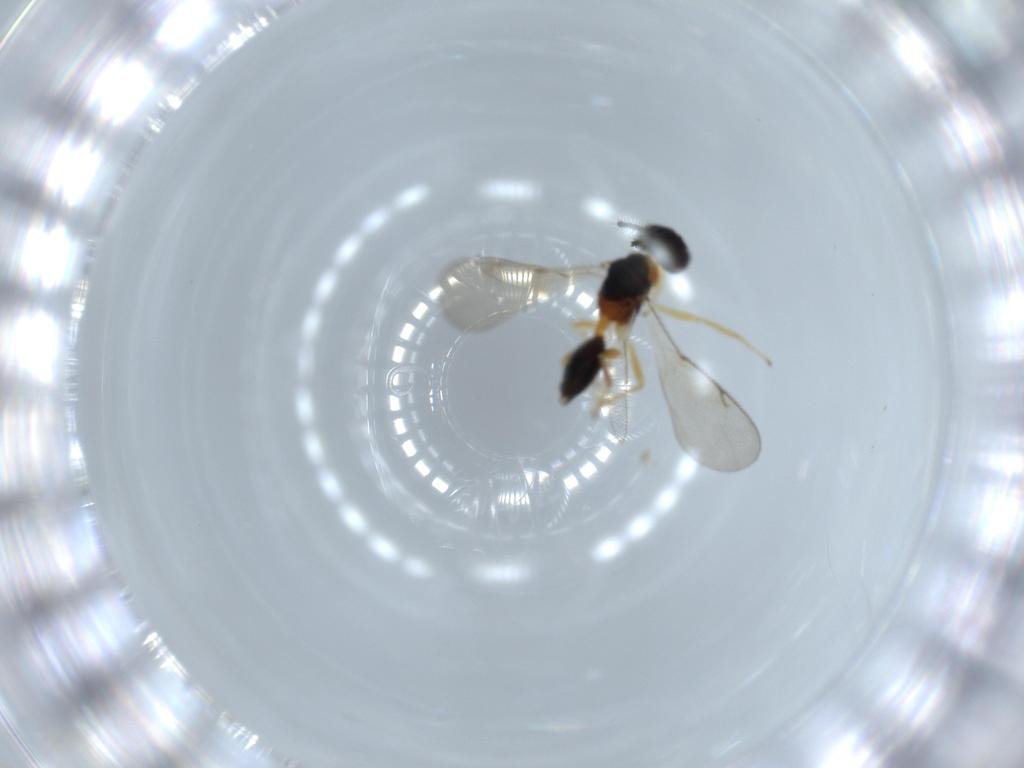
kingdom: Animalia
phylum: Arthropoda
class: Insecta
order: Hymenoptera
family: Diparidae
